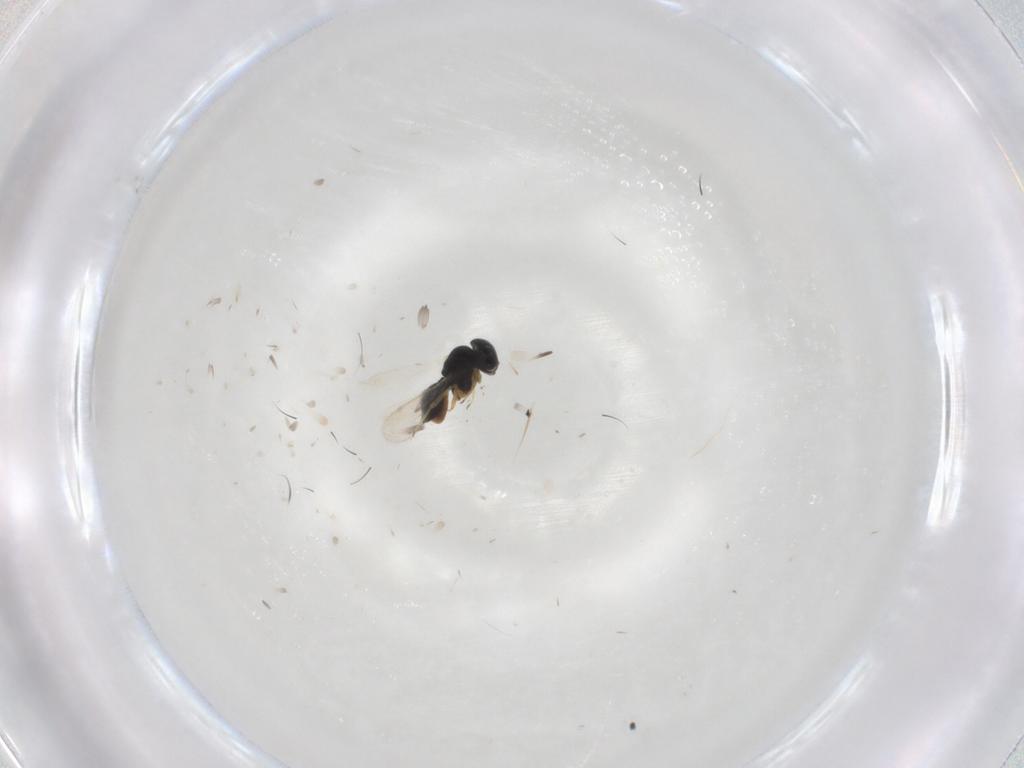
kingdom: Animalia
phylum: Arthropoda
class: Insecta
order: Hymenoptera
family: Scelionidae
